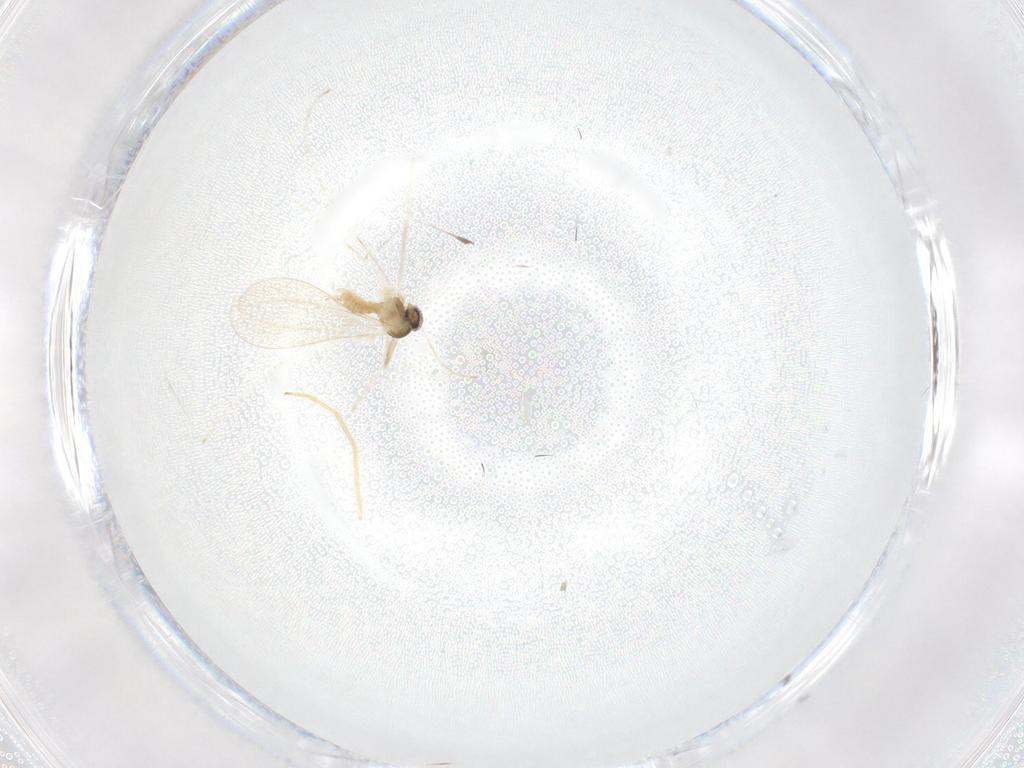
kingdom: Animalia
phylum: Arthropoda
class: Insecta
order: Diptera
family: Cecidomyiidae
